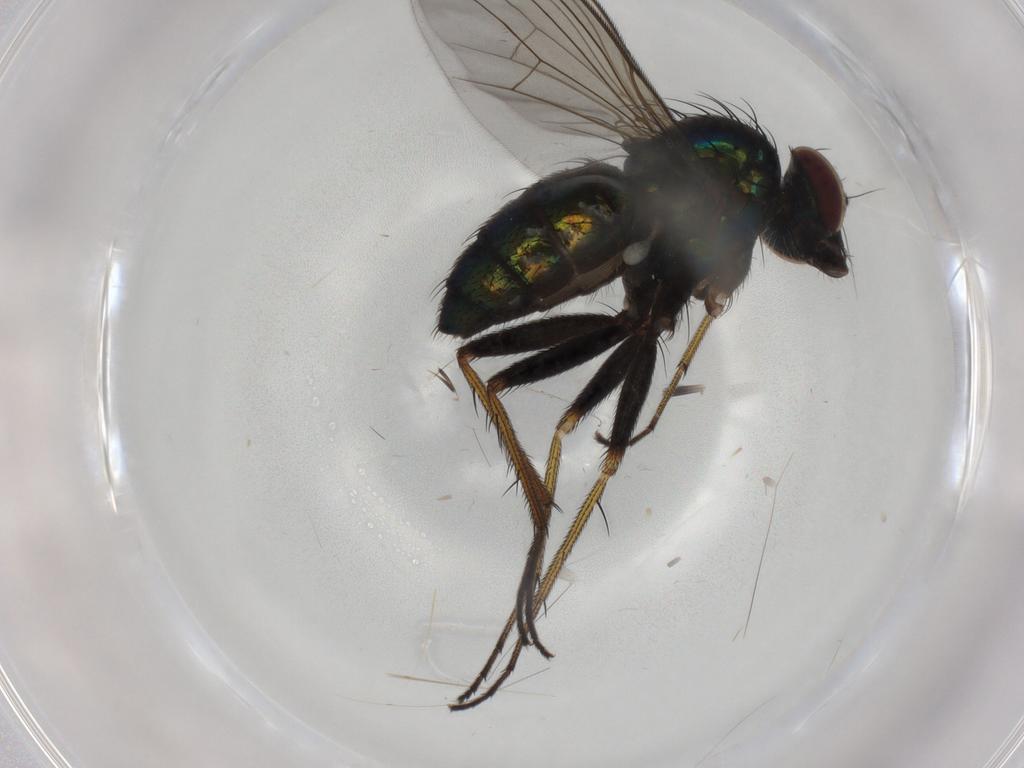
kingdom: Animalia
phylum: Arthropoda
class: Insecta
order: Diptera
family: Dolichopodidae
